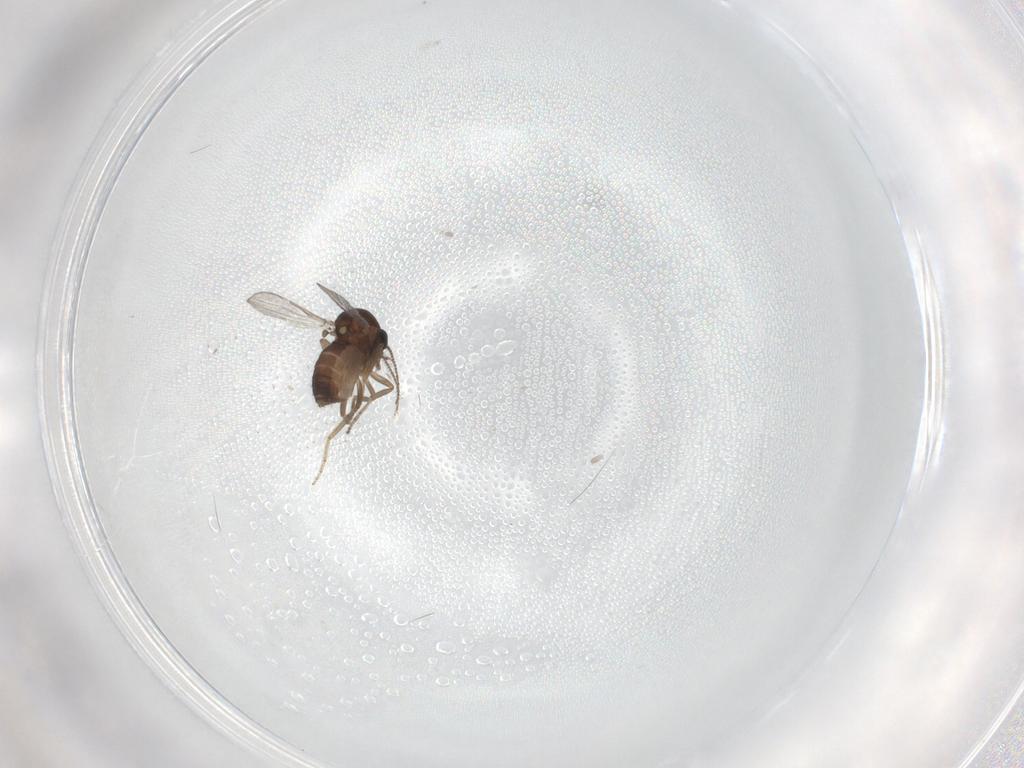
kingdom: Animalia
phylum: Arthropoda
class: Insecta
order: Diptera
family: Ceratopogonidae
